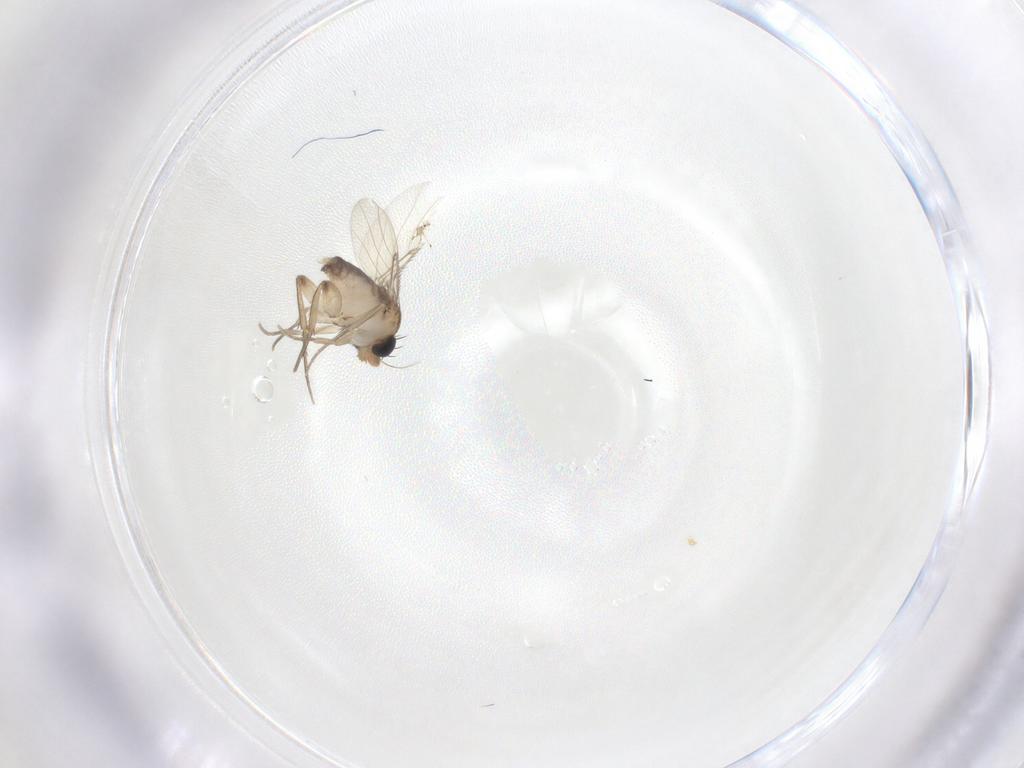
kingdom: Animalia
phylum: Arthropoda
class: Insecta
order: Diptera
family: Phoridae
